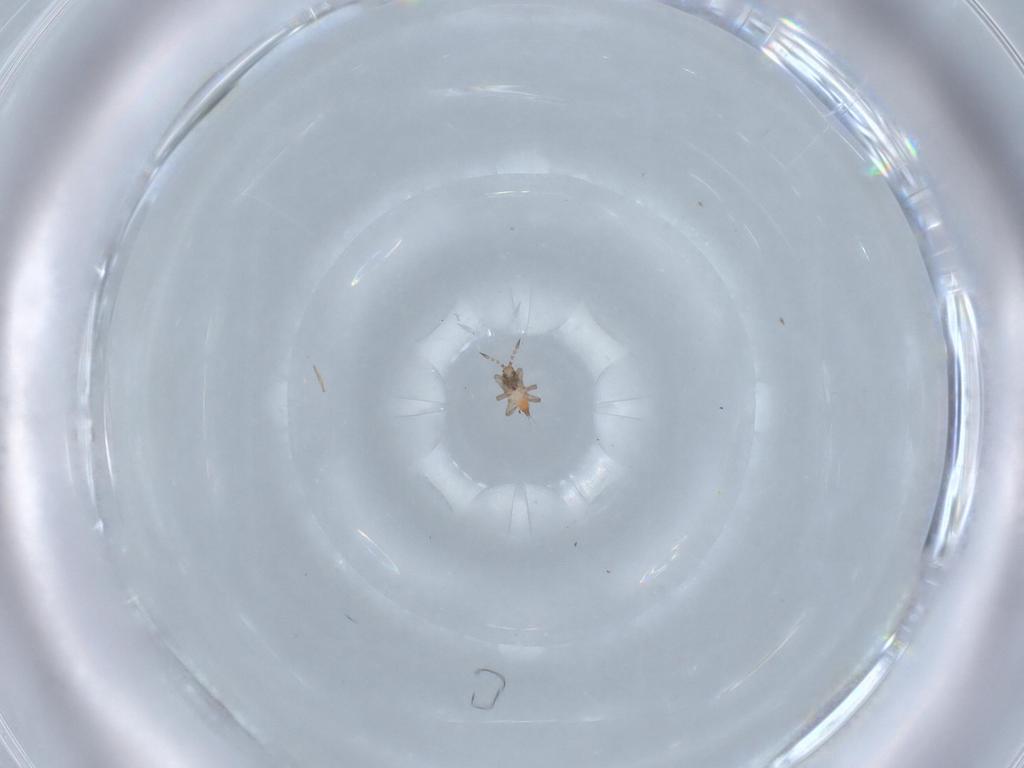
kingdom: Animalia
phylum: Arthropoda
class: Insecta
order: Thysanoptera
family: Phlaeothripidae
